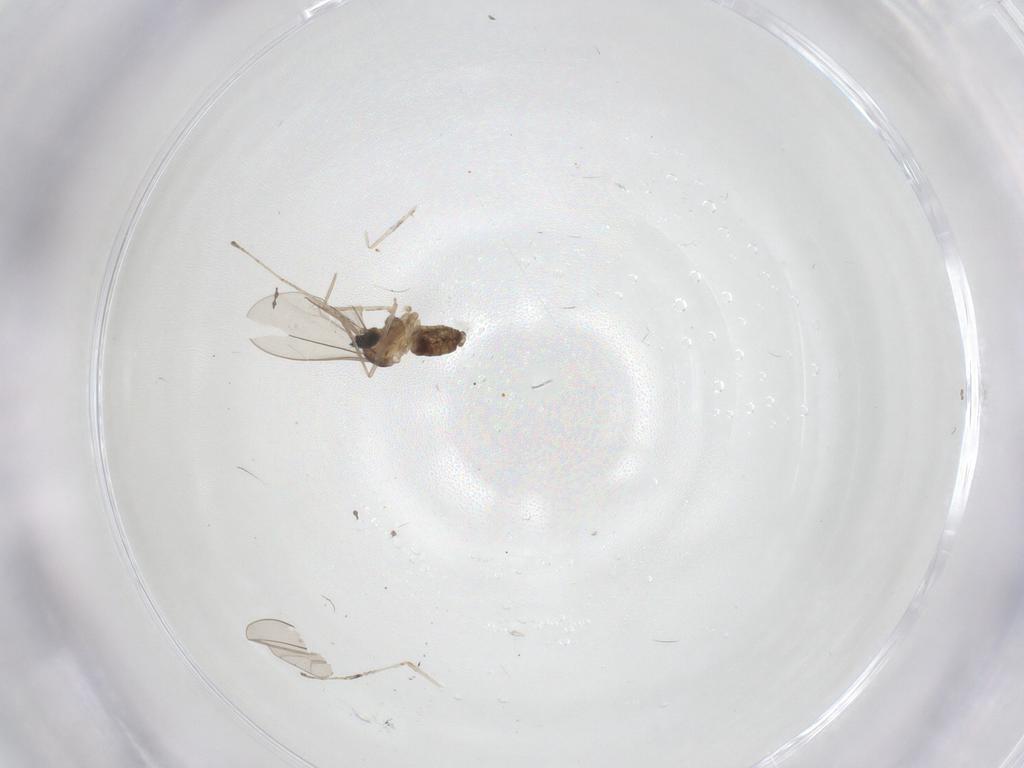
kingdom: Animalia
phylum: Arthropoda
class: Insecta
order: Diptera
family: Cecidomyiidae
